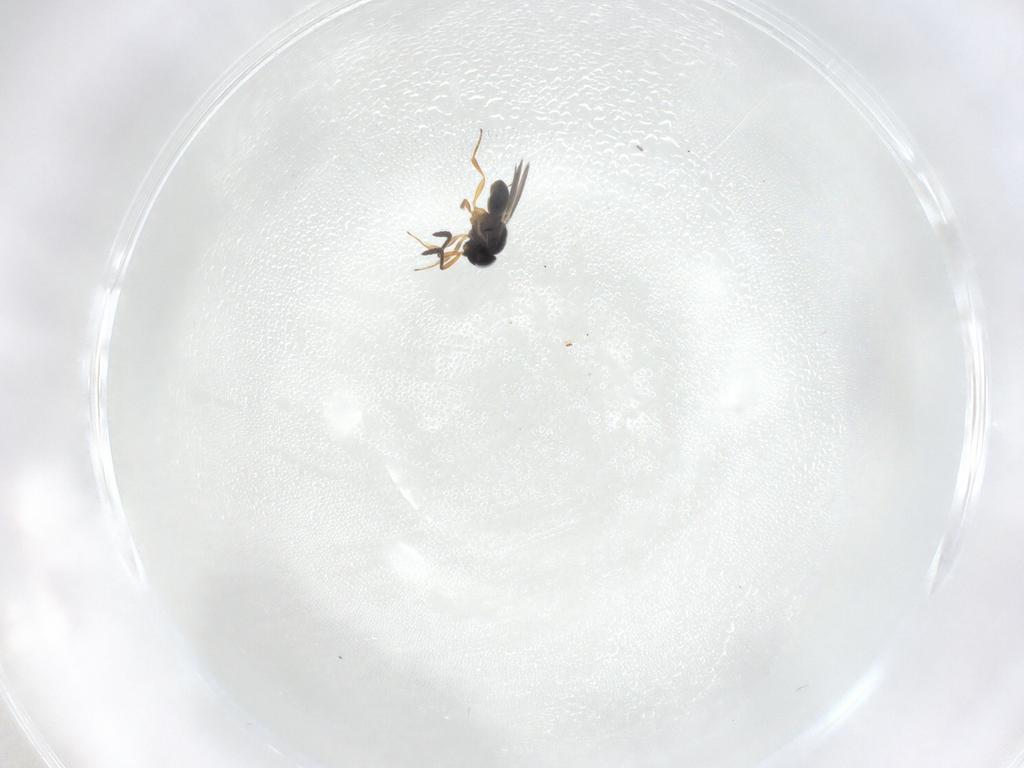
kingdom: Animalia
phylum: Arthropoda
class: Insecta
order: Hymenoptera
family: Scelionidae
